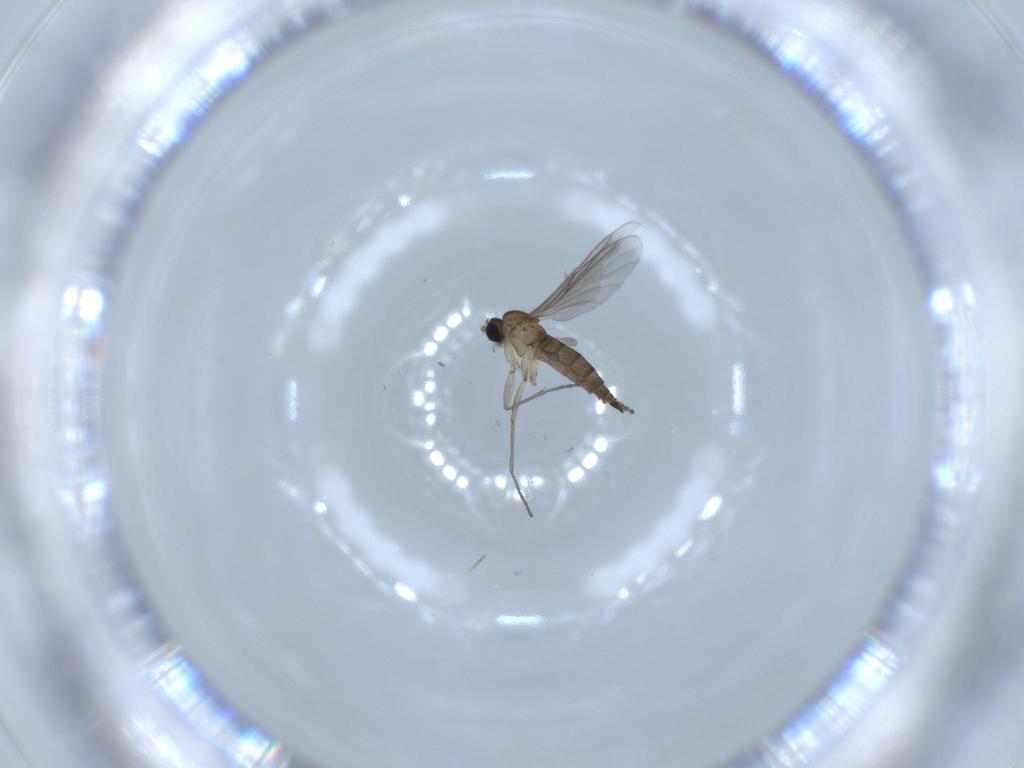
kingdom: Animalia
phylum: Arthropoda
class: Insecta
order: Diptera
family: Sciaridae
